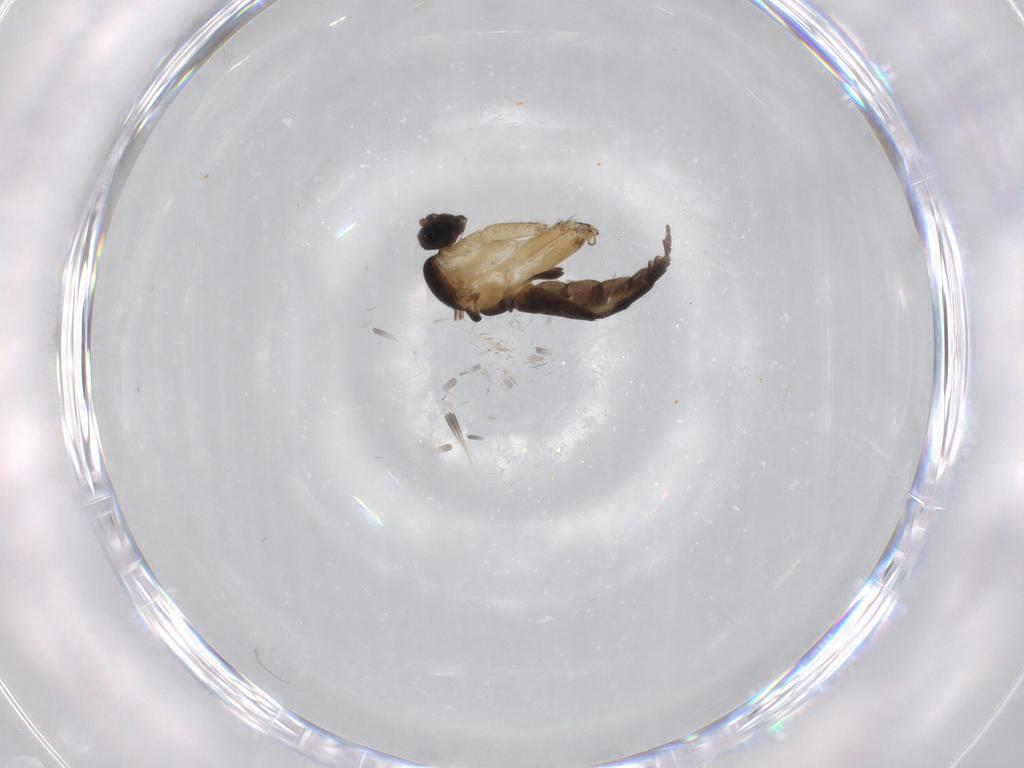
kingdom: Animalia
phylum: Arthropoda
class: Insecta
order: Diptera
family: Sciaridae
